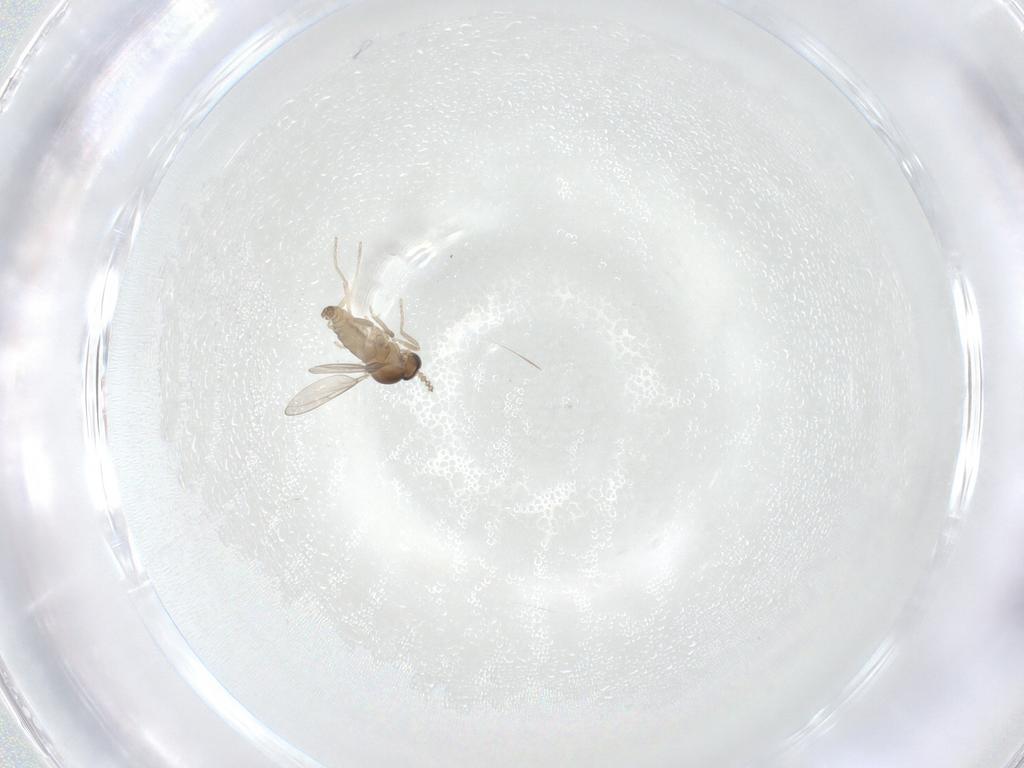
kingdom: Animalia
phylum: Arthropoda
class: Insecta
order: Diptera
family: Cecidomyiidae
